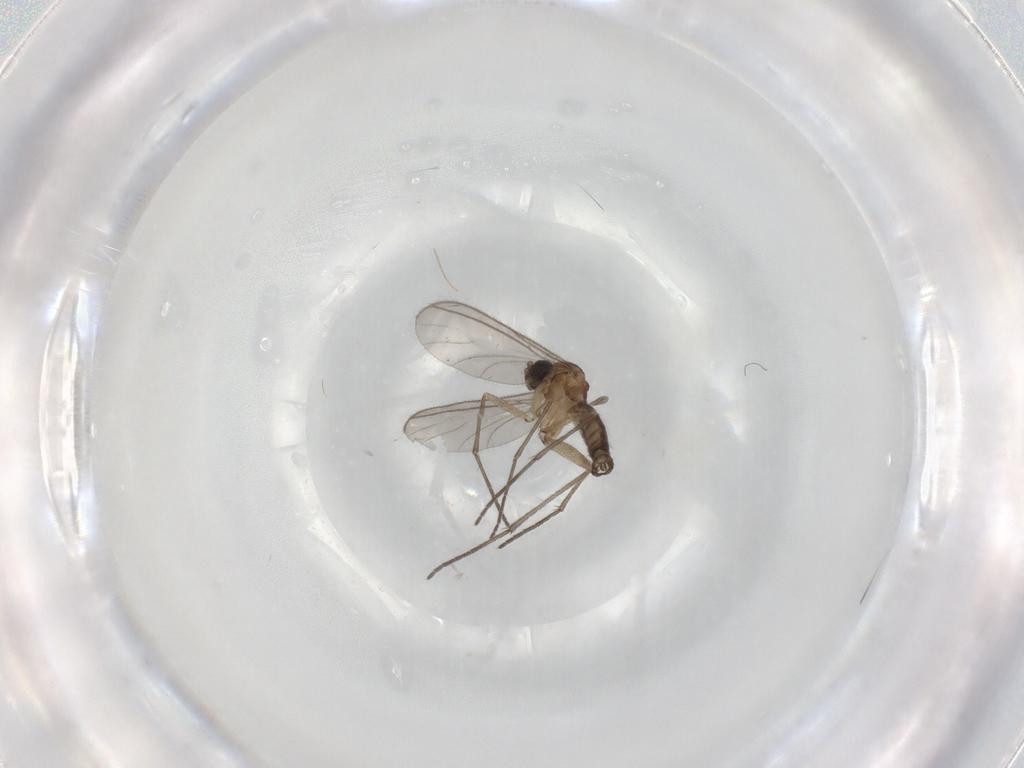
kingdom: Animalia
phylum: Arthropoda
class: Insecta
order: Diptera
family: Sciaridae
